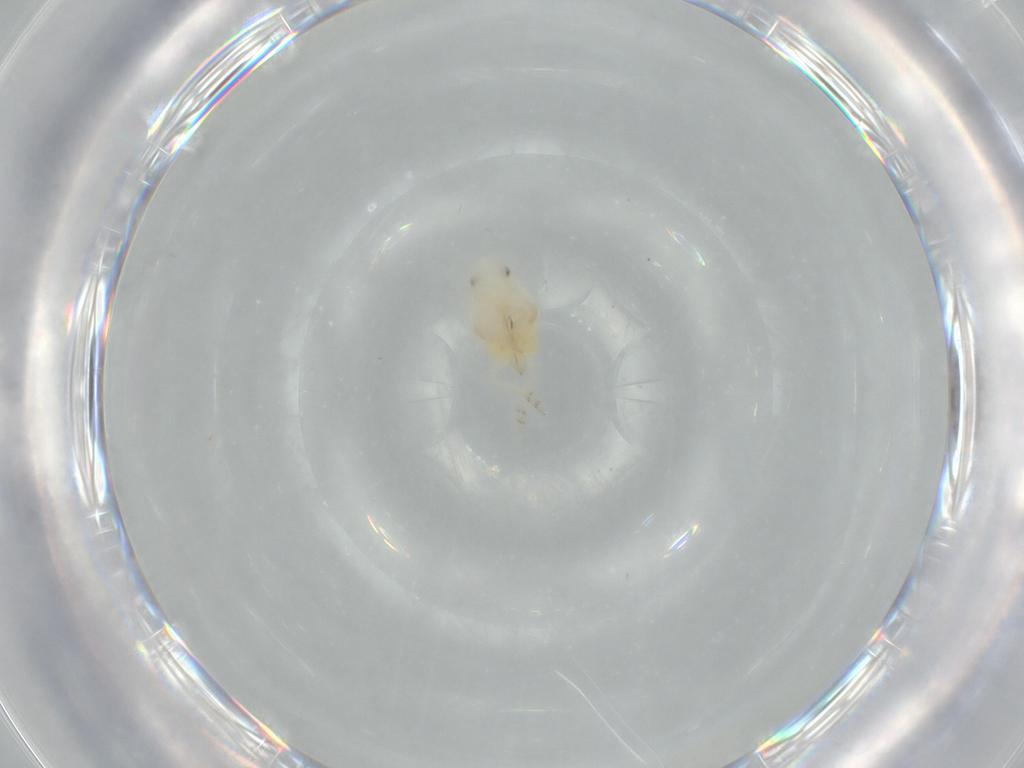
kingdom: Animalia
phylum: Arthropoda
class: Insecta
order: Hemiptera
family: Flatidae
